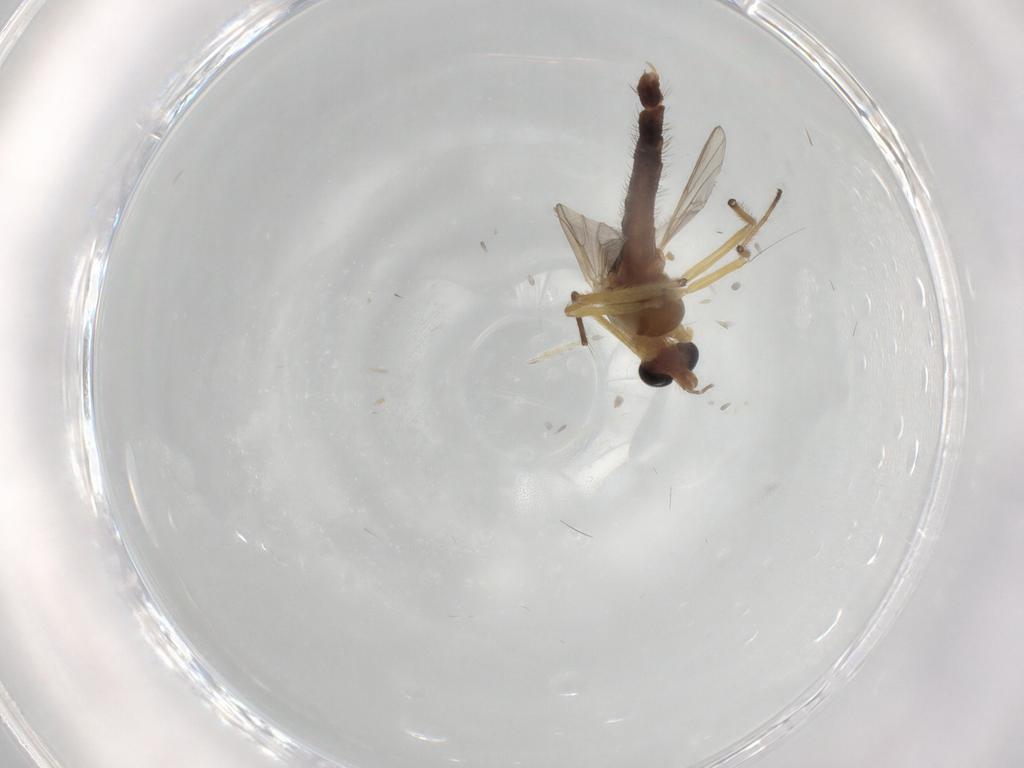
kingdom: Animalia
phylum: Arthropoda
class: Insecta
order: Diptera
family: Chironomidae
